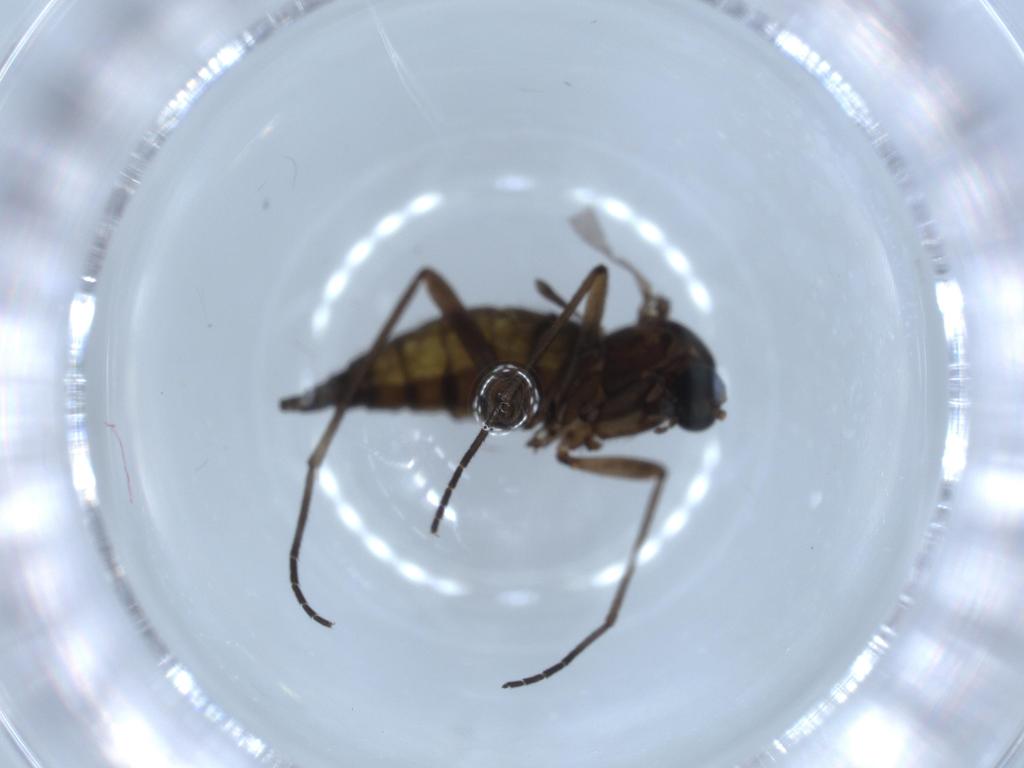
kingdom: Animalia
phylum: Arthropoda
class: Insecta
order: Diptera
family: Sciaridae
